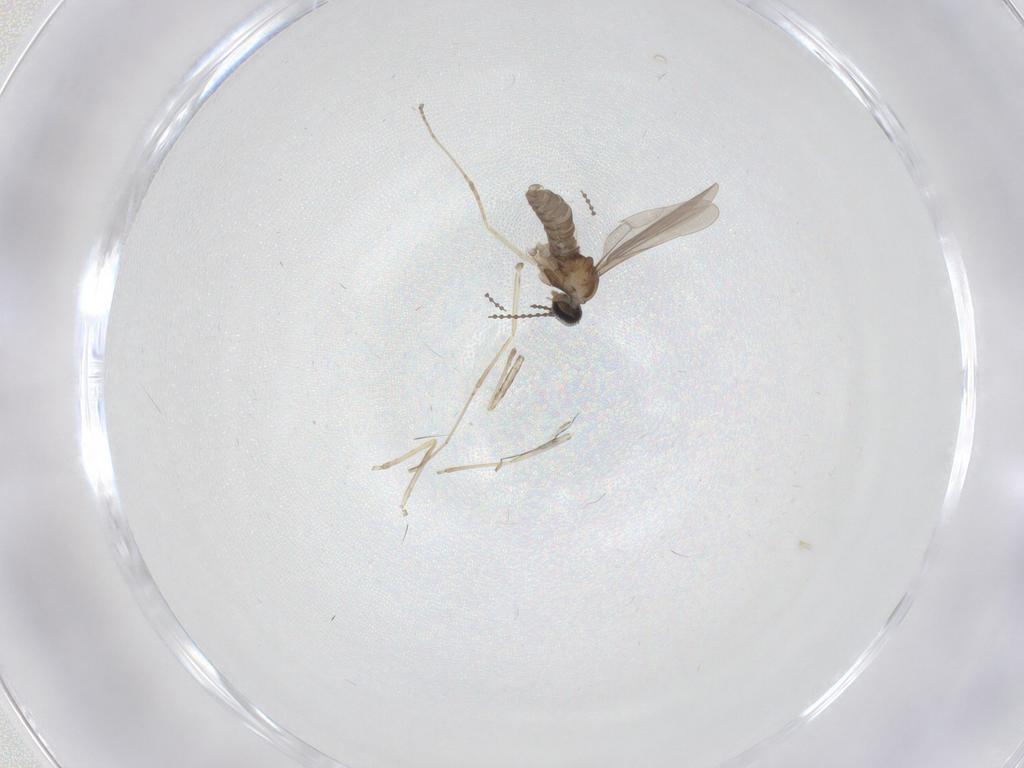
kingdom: Animalia
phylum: Arthropoda
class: Insecta
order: Diptera
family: Cecidomyiidae
